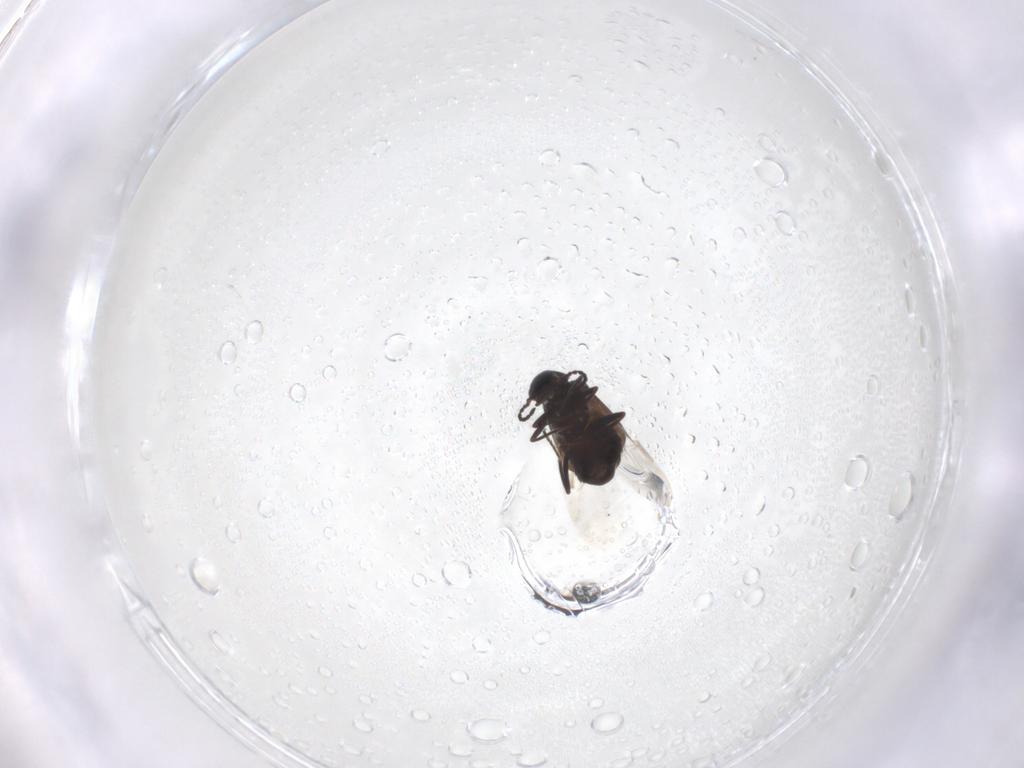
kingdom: Animalia
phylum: Arthropoda
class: Insecta
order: Coleoptera
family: Melyridae
